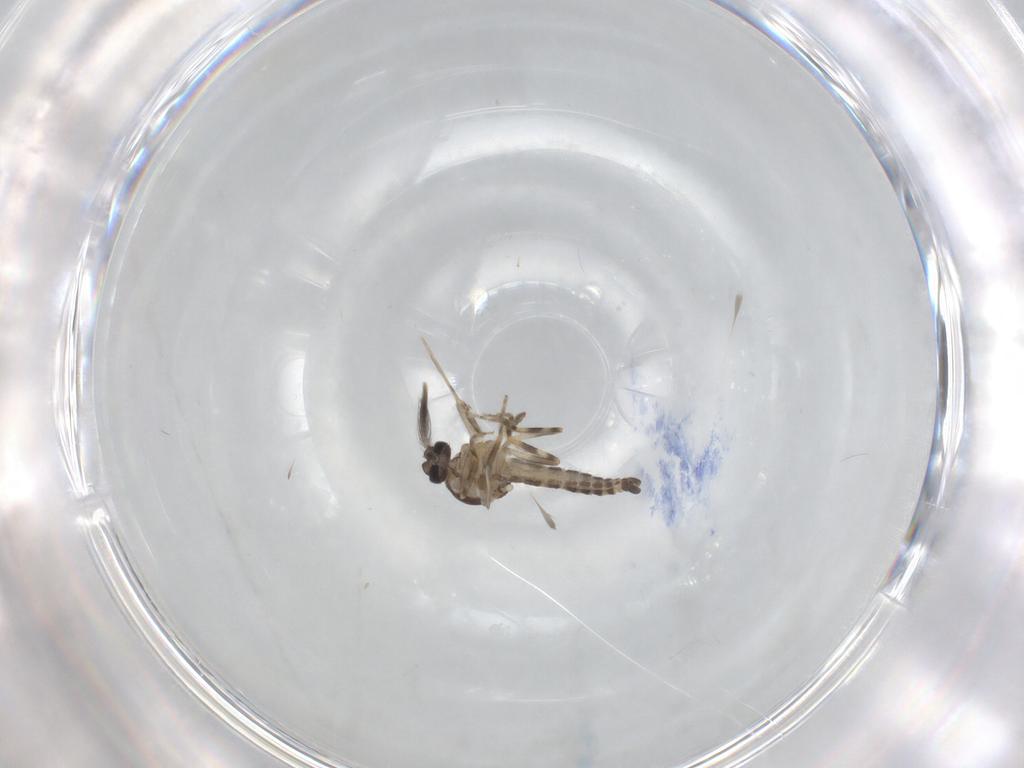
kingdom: Animalia
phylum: Arthropoda
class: Insecta
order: Diptera
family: Ceratopogonidae
